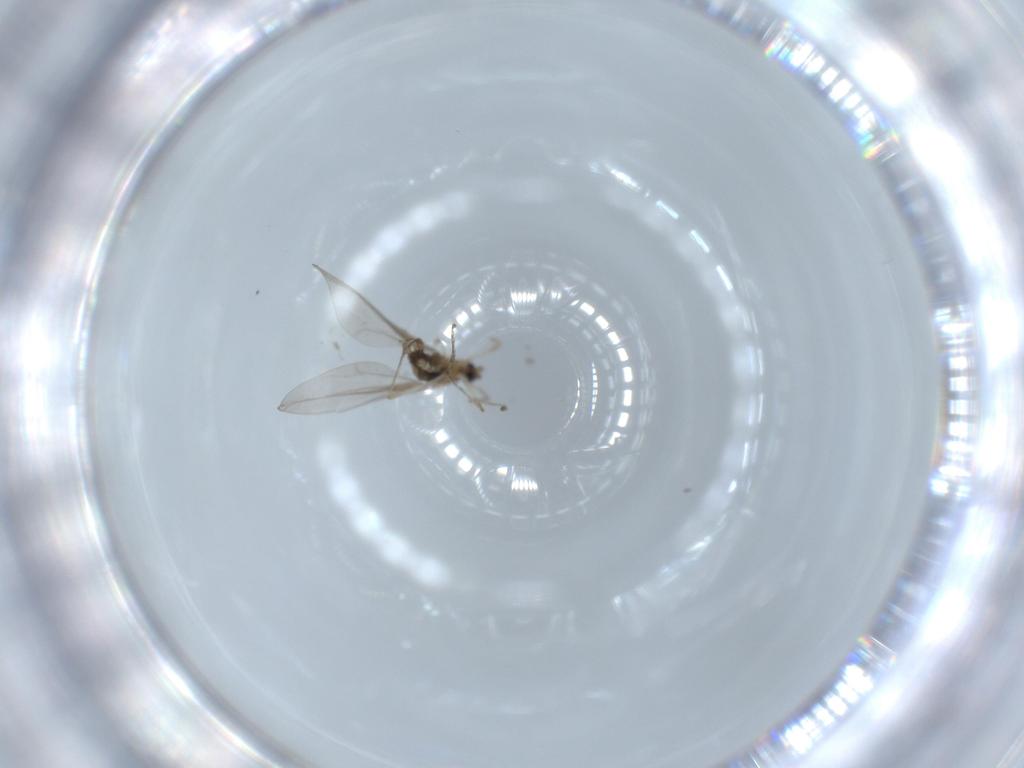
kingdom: Animalia
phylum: Arthropoda
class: Insecta
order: Diptera
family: Cecidomyiidae
